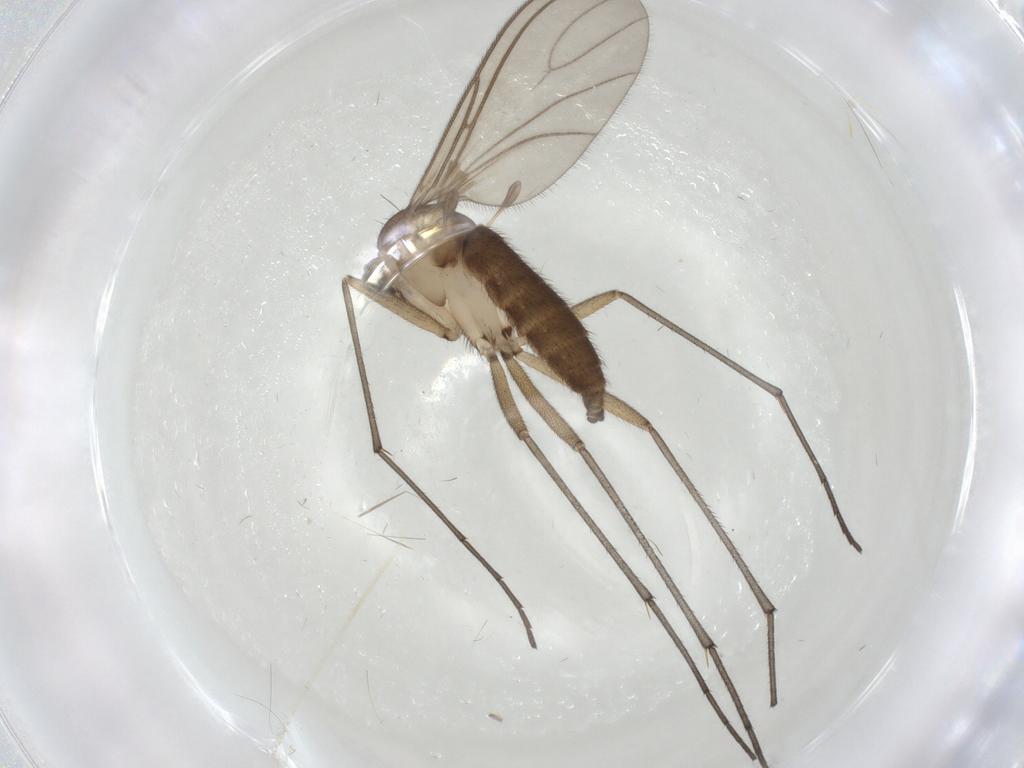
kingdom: Animalia
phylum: Arthropoda
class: Insecta
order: Diptera
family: Sciaridae
